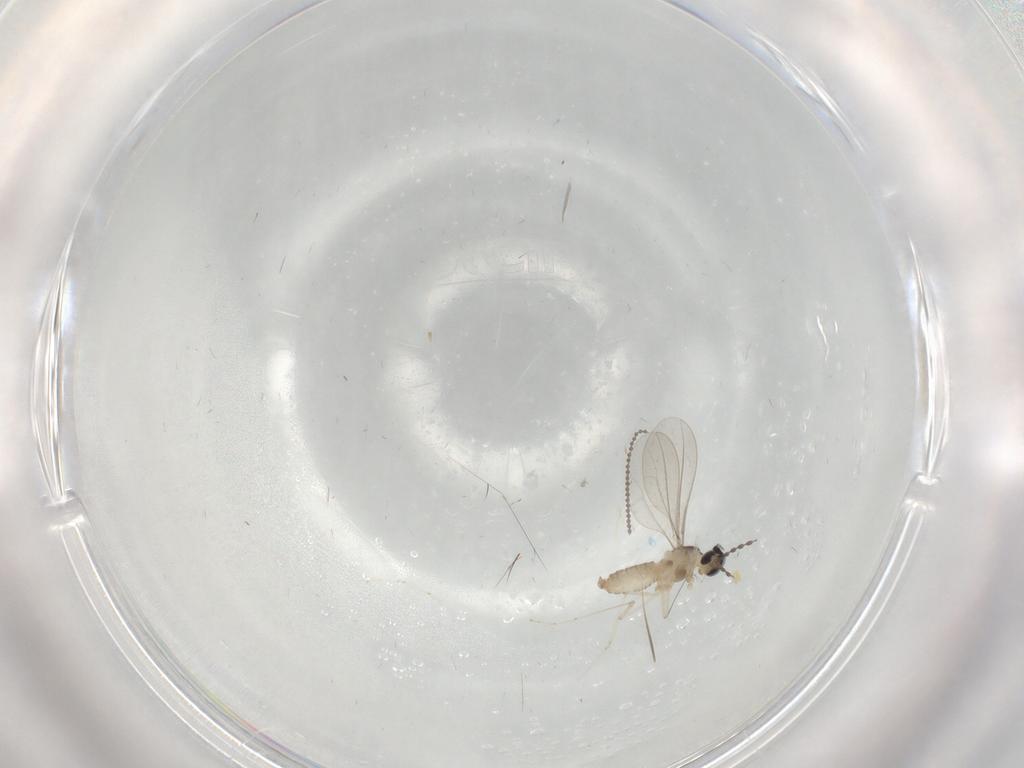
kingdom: Animalia
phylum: Arthropoda
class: Insecta
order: Diptera
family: Cecidomyiidae
